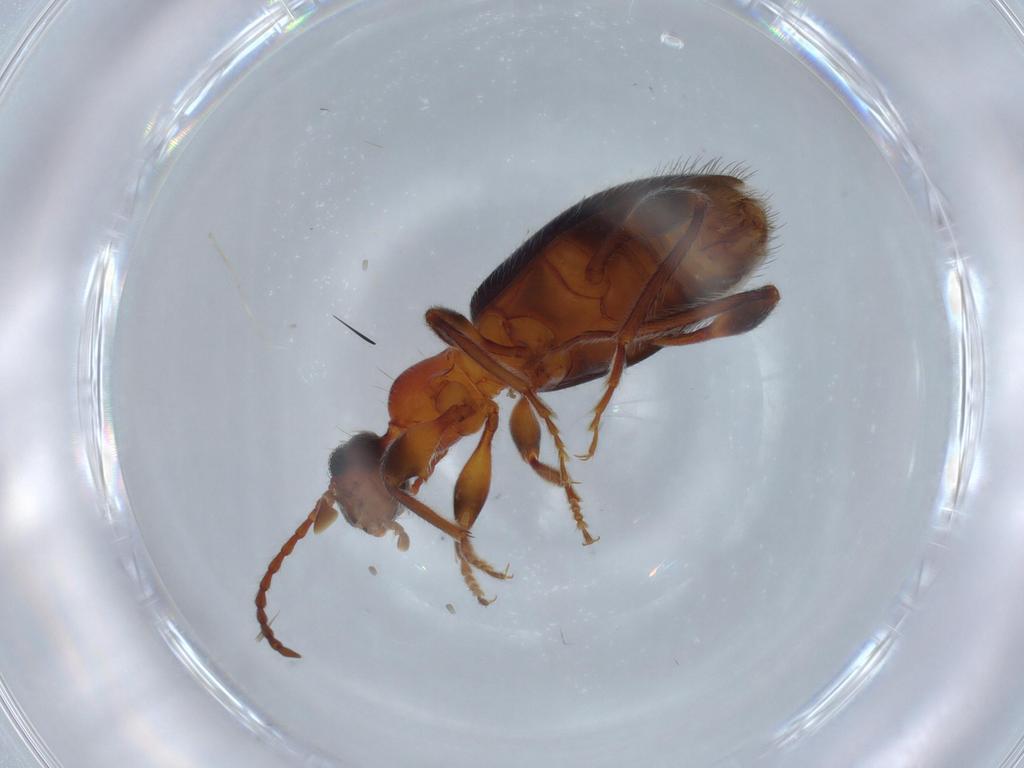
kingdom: Animalia
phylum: Arthropoda
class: Insecta
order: Coleoptera
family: Anthicidae
